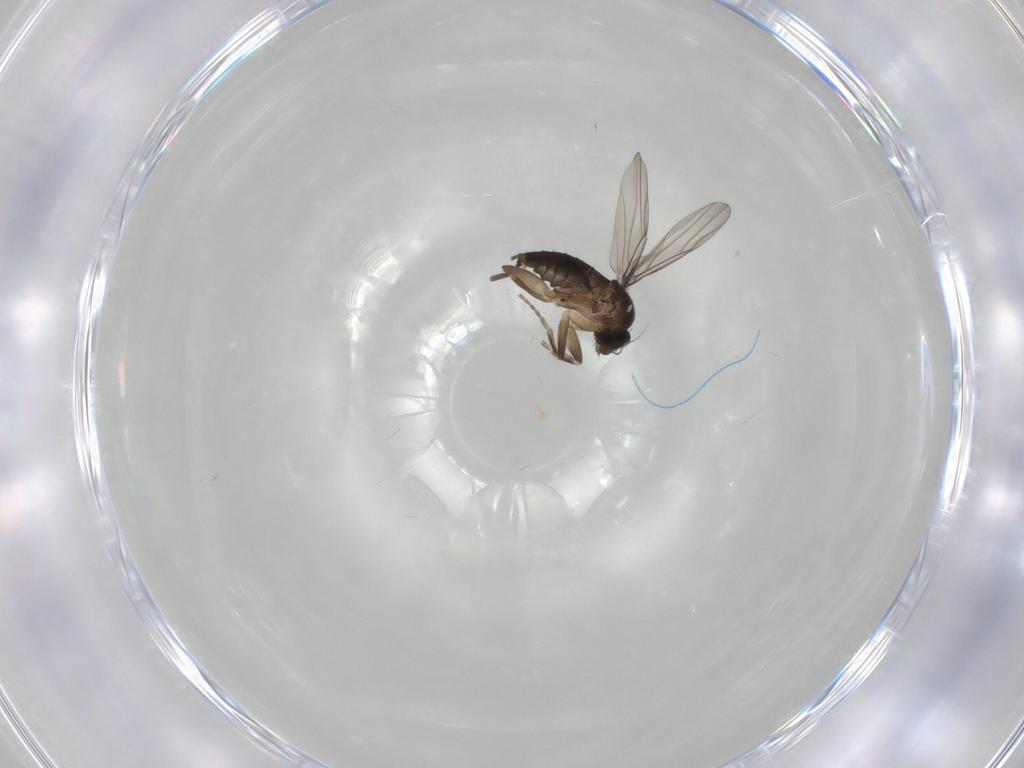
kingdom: Animalia
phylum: Arthropoda
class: Insecta
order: Diptera
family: Phoridae
